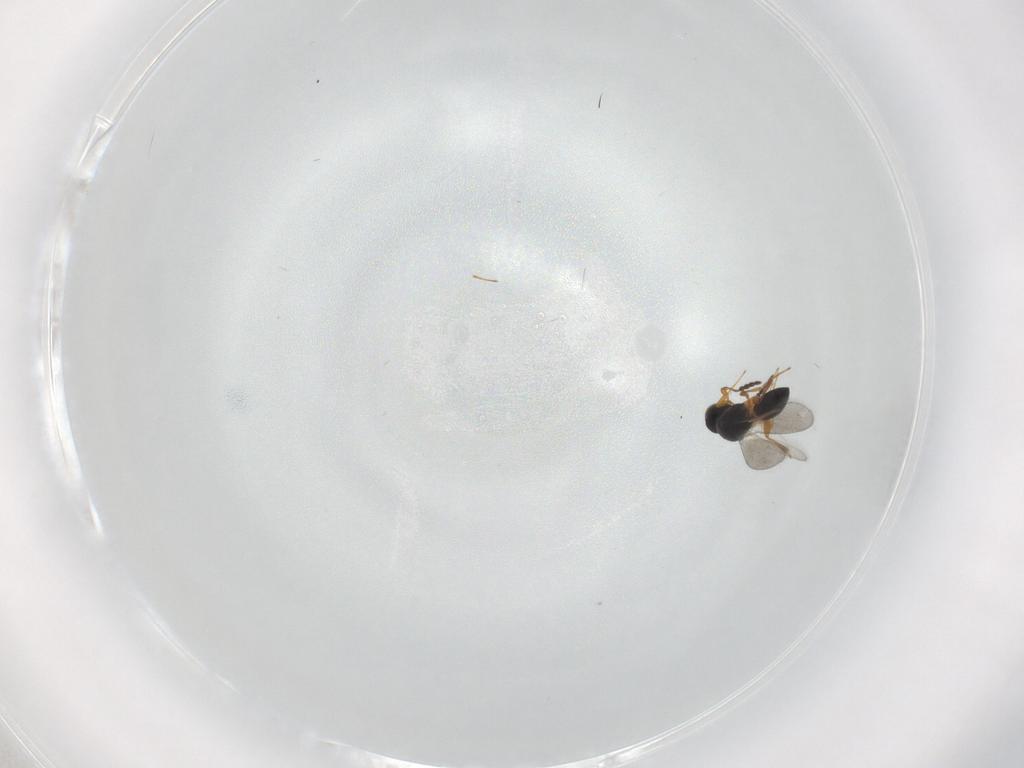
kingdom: Animalia
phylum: Arthropoda
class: Insecta
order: Hymenoptera
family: Platygastridae
